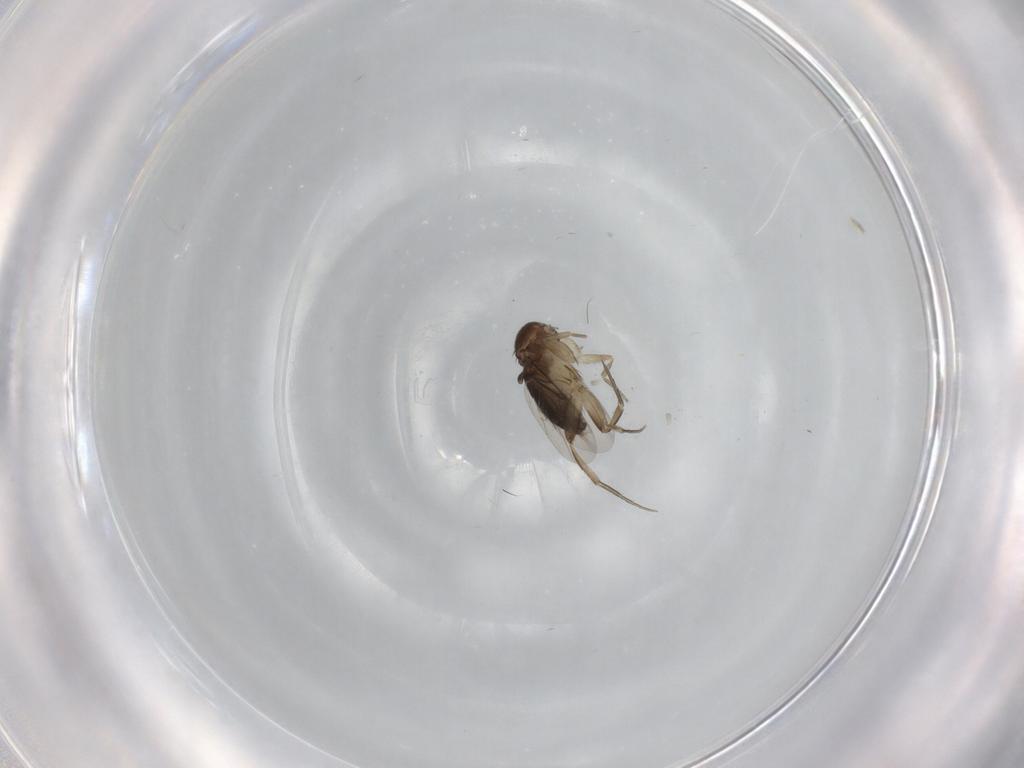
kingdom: Animalia
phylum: Arthropoda
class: Insecta
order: Diptera
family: Phoridae
